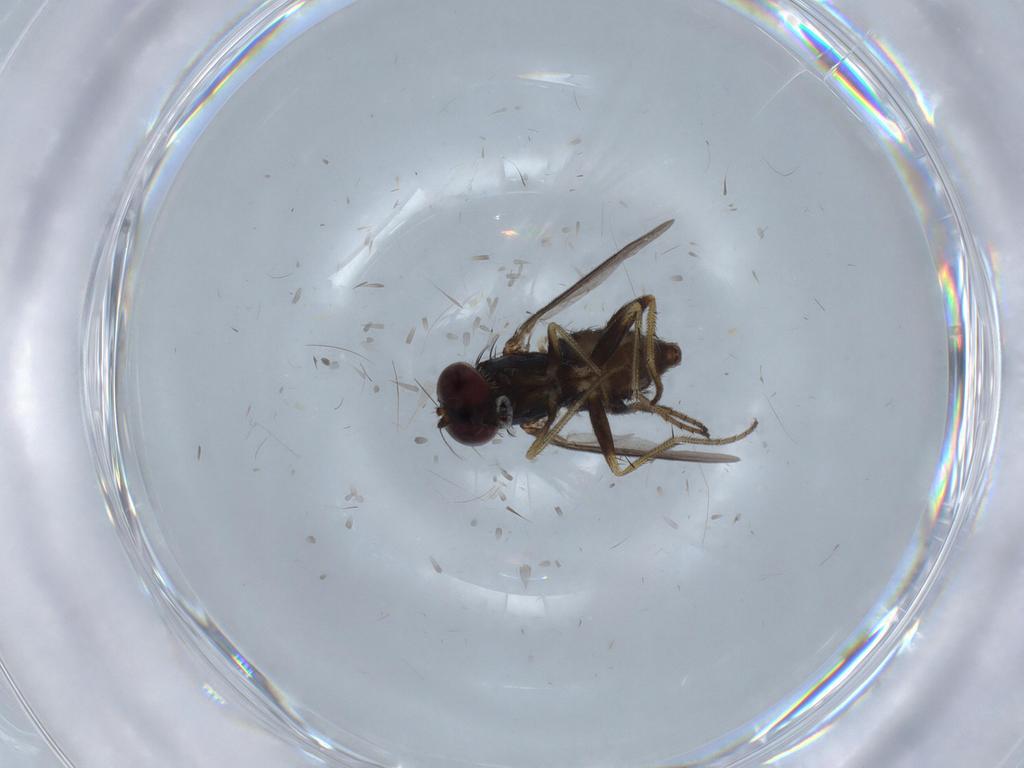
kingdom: Animalia
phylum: Arthropoda
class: Insecta
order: Diptera
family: Dolichopodidae
